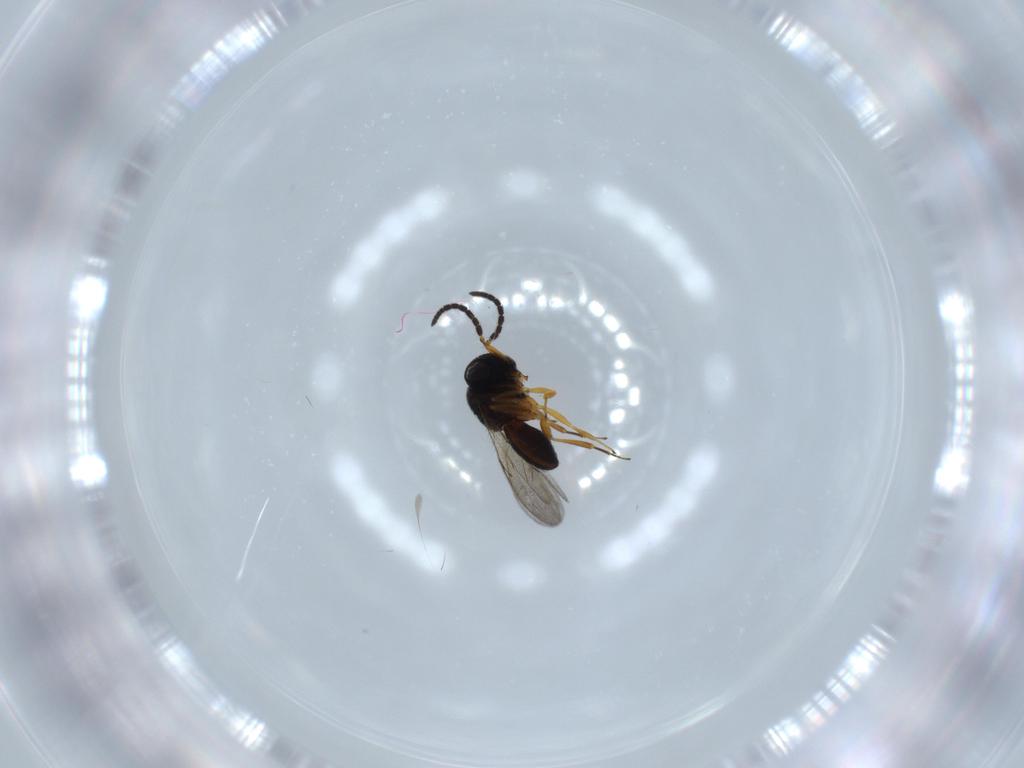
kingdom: Animalia
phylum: Arthropoda
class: Insecta
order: Hymenoptera
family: Scelionidae
